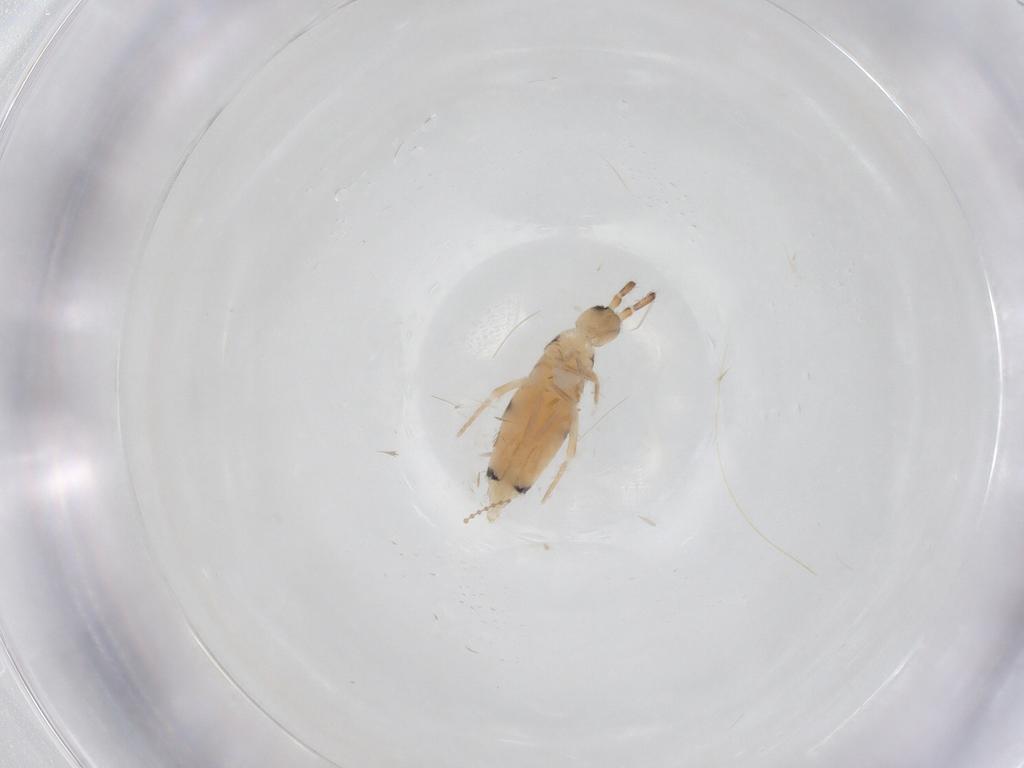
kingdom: Animalia
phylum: Arthropoda
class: Collembola
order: Entomobryomorpha
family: Entomobryidae
